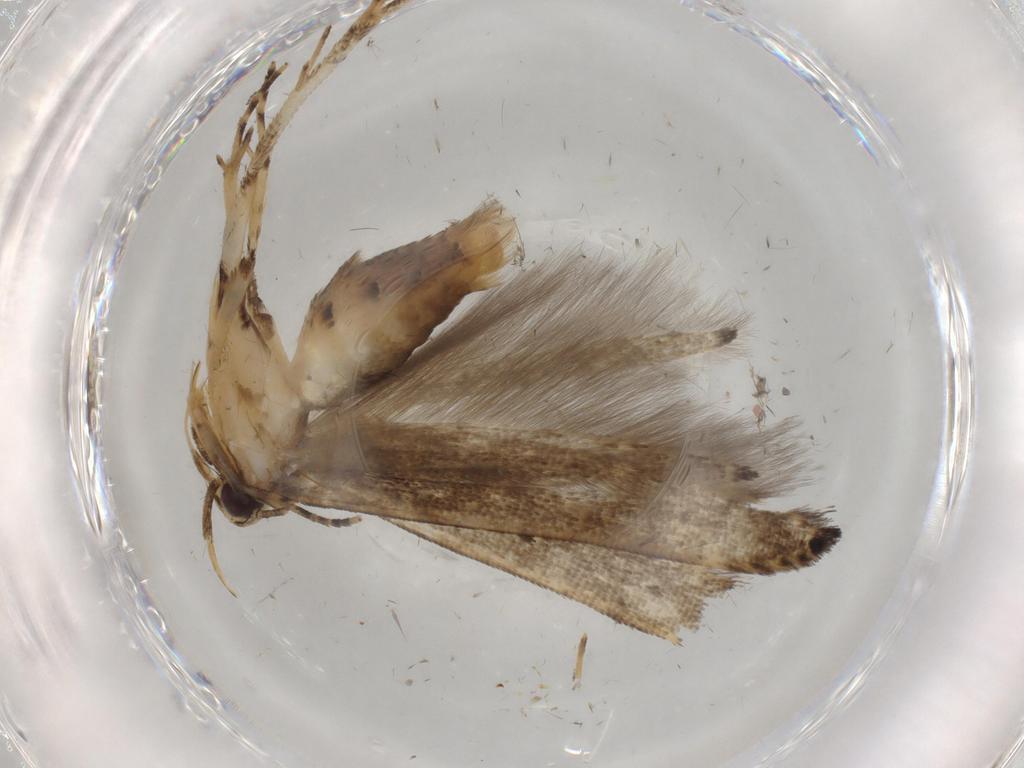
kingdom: Animalia
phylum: Arthropoda
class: Insecta
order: Lepidoptera
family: Cosmopterigidae
